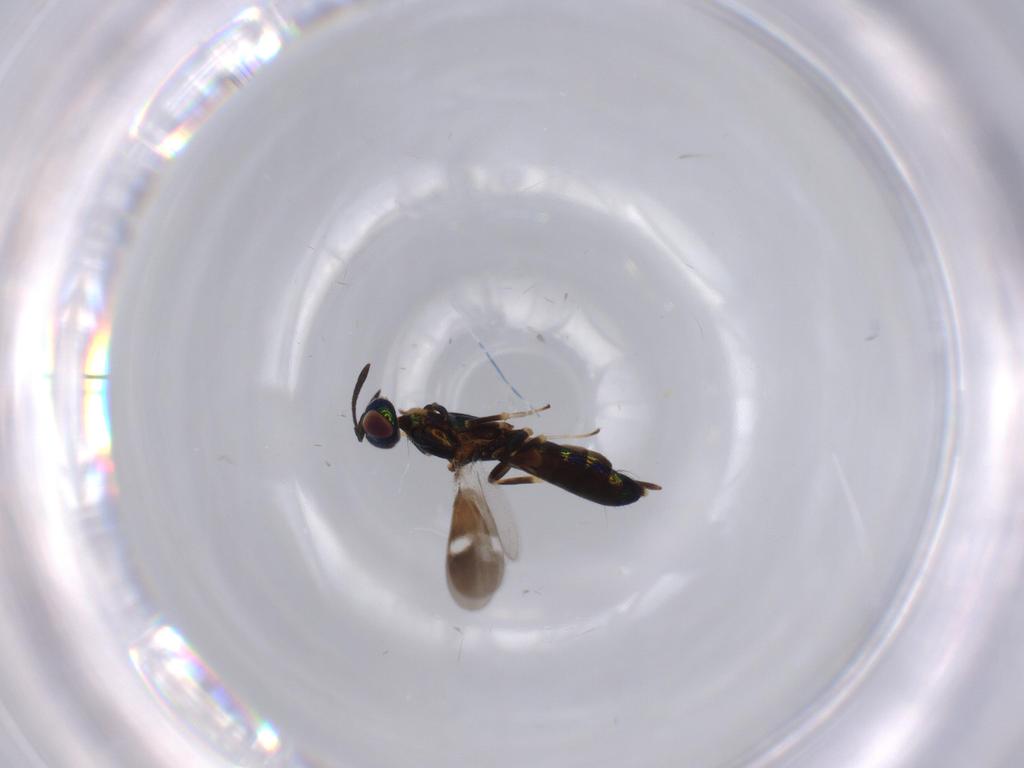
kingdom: Animalia
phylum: Arthropoda
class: Insecta
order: Hymenoptera
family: Eupelmidae
